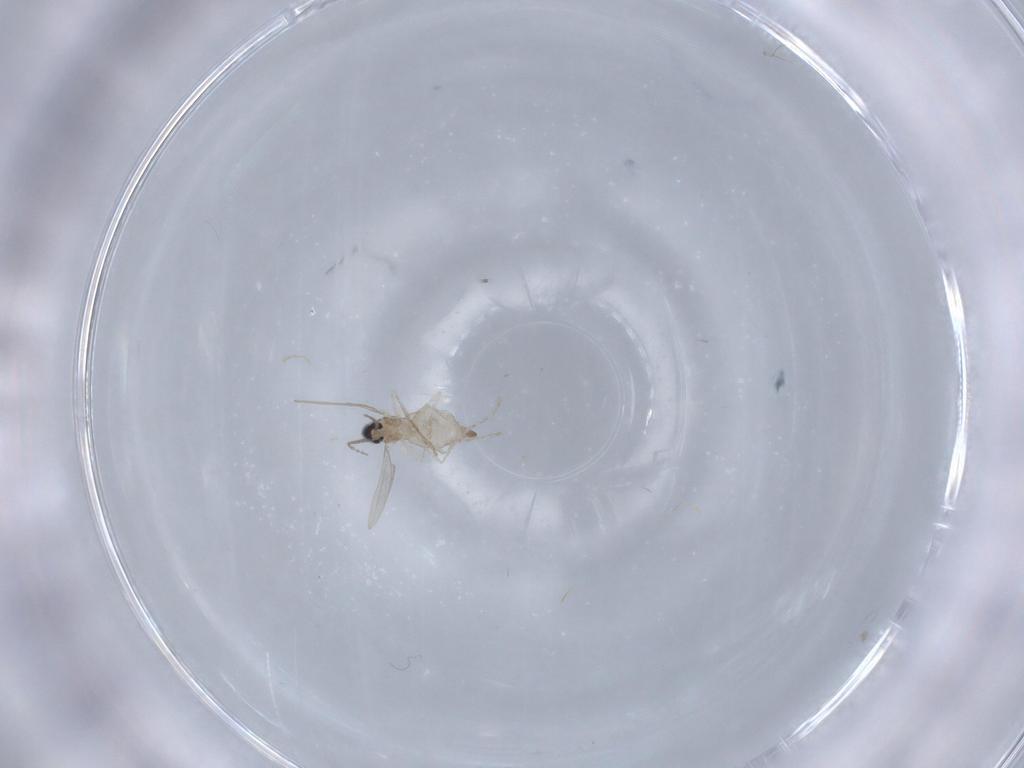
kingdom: Animalia
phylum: Arthropoda
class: Insecta
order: Diptera
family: Cecidomyiidae
